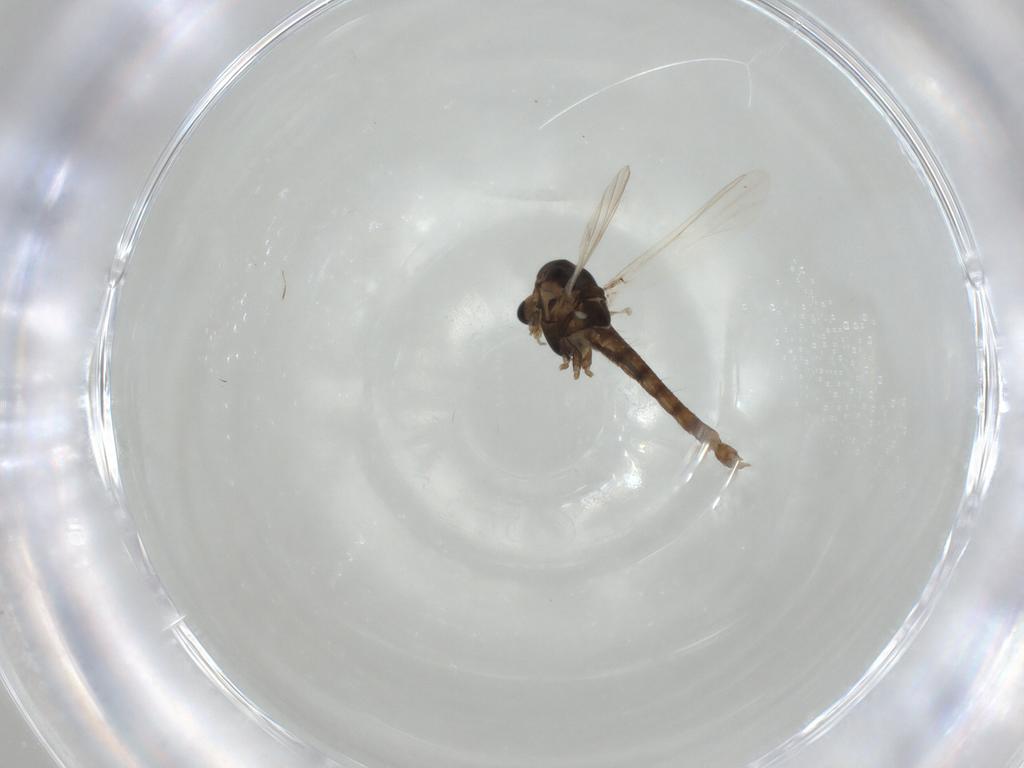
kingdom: Animalia
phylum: Arthropoda
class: Insecta
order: Diptera
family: Chironomidae
